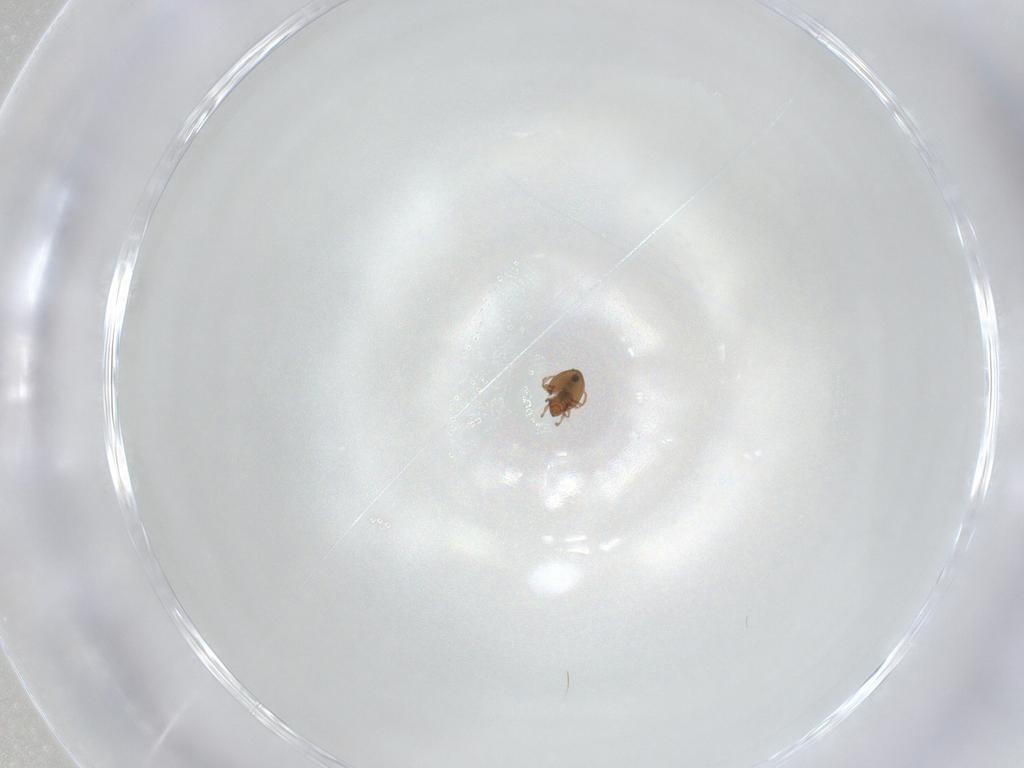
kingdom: Animalia
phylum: Arthropoda
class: Arachnida
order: Sarcoptiformes
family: Scheloribatidae
